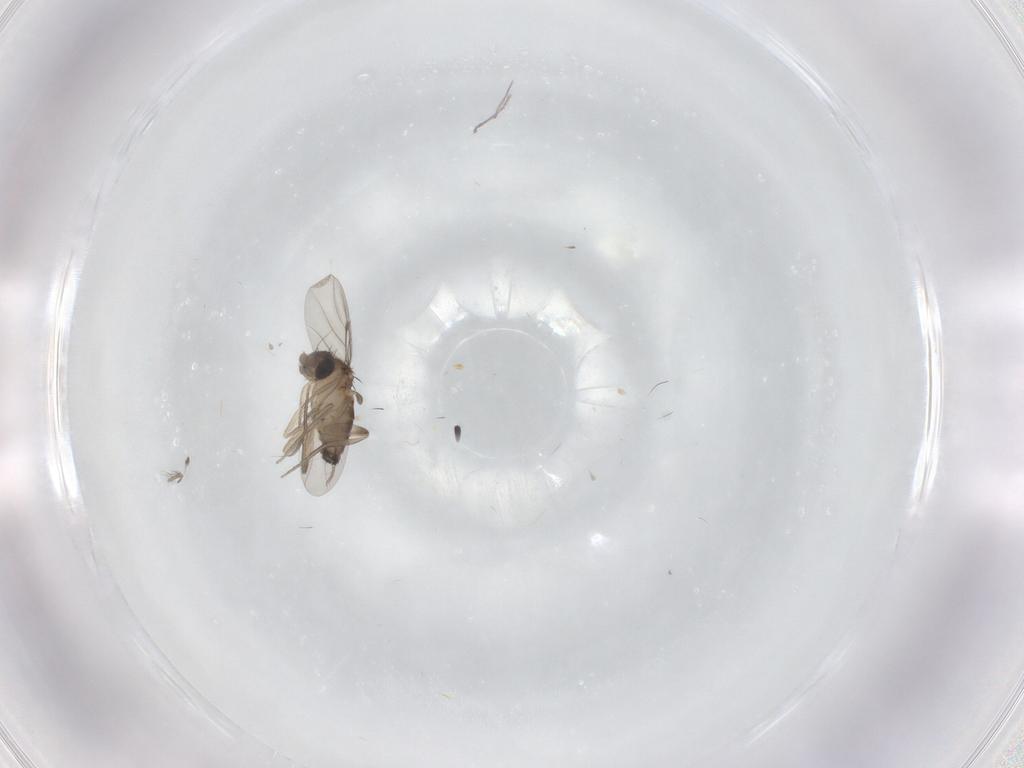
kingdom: Animalia
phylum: Arthropoda
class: Insecta
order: Diptera
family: Phoridae
